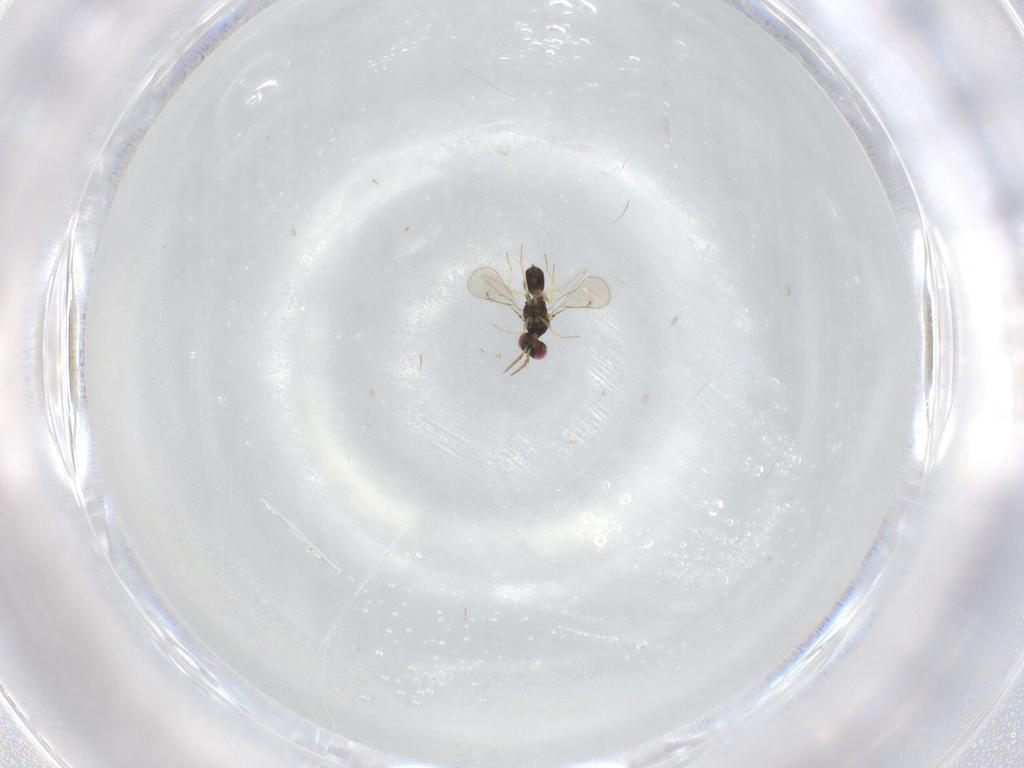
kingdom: Animalia
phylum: Arthropoda
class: Insecta
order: Hymenoptera
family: Eulophidae
